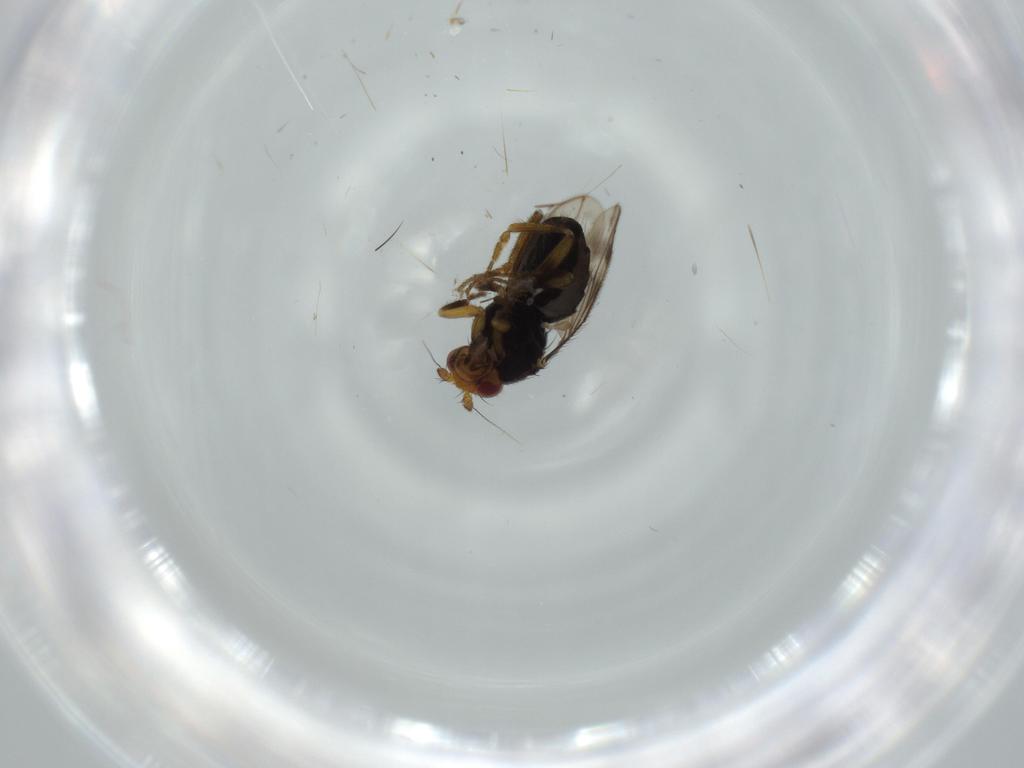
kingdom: Animalia
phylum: Arthropoda
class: Insecta
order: Diptera
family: Sphaeroceridae
